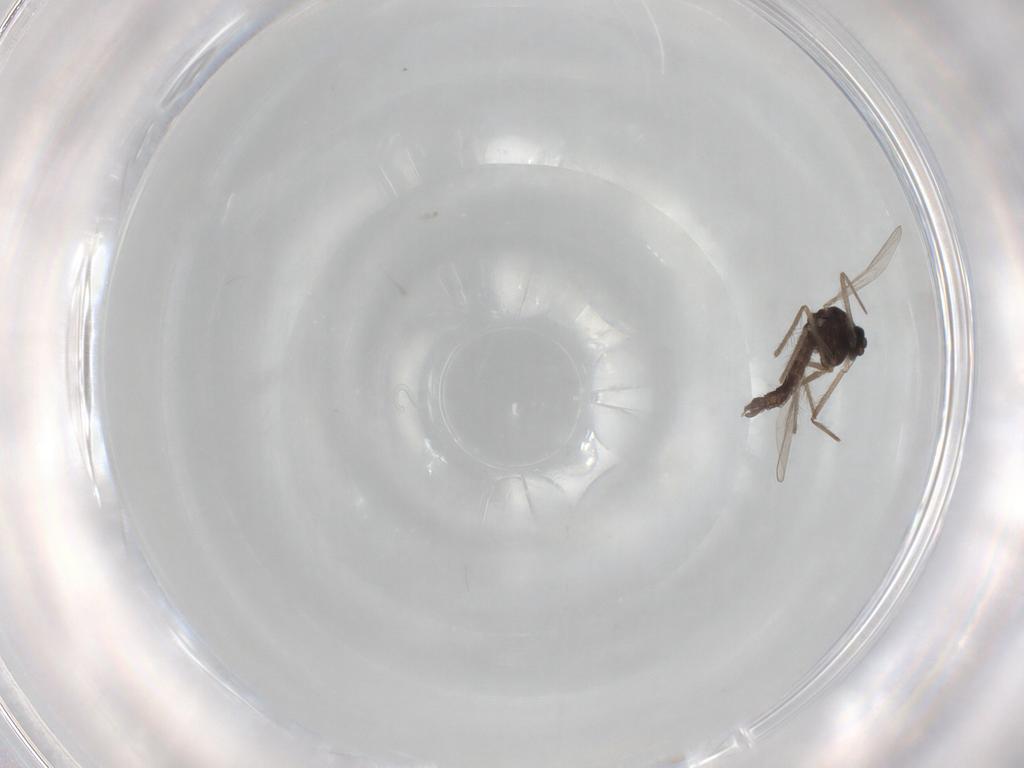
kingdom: Animalia
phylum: Arthropoda
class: Insecta
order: Diptera
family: Chironomidae
